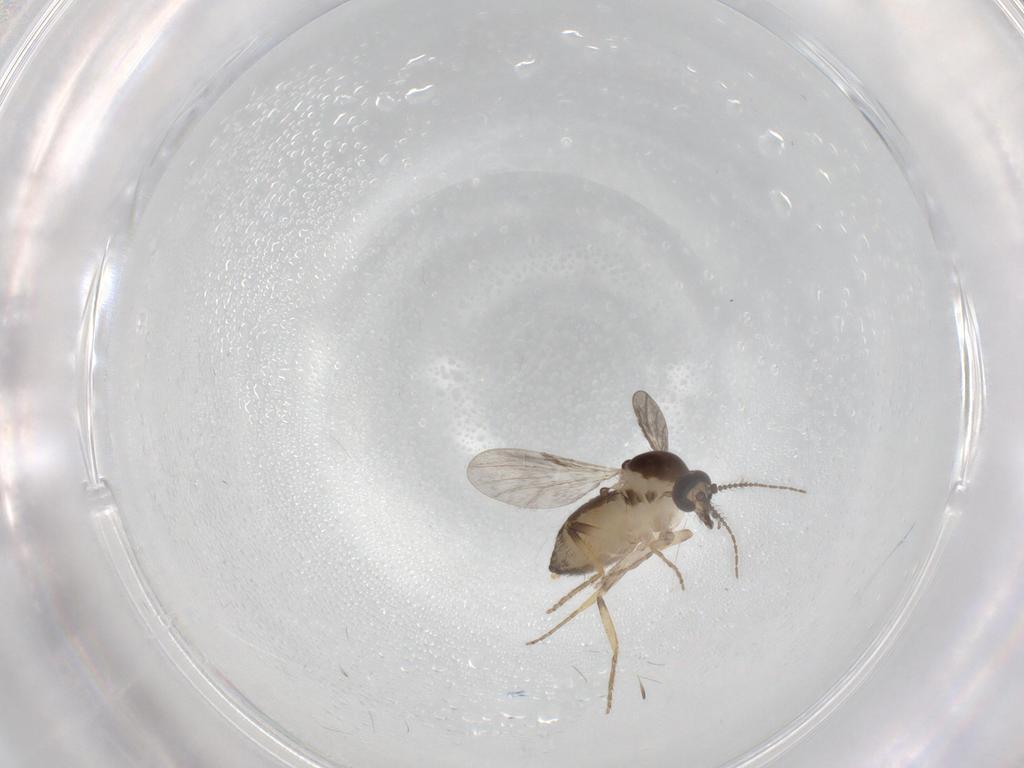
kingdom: Animalia
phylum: Arthropoda
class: Insecta
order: Diptera
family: Ceratopogonidae
